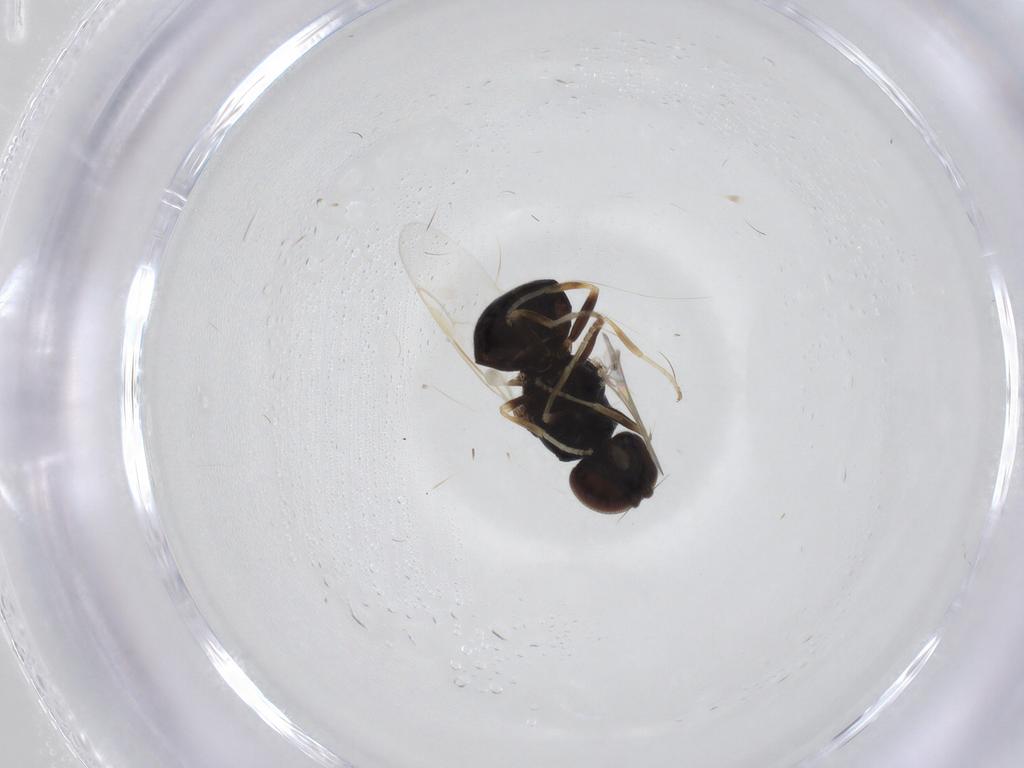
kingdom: Animalia
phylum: Arthropoda
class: Insecta
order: Diptera
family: Stratiomyidae
